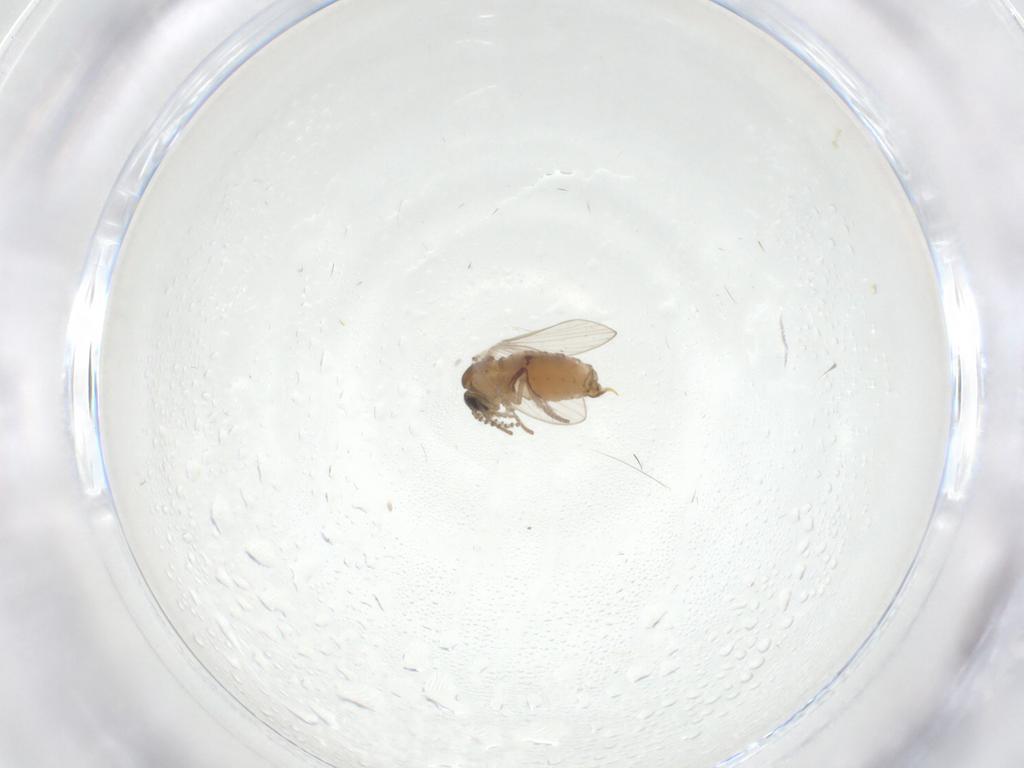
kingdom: Animalia
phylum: Arthropoda
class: Insecta
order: Diptera
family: Psychodidae
